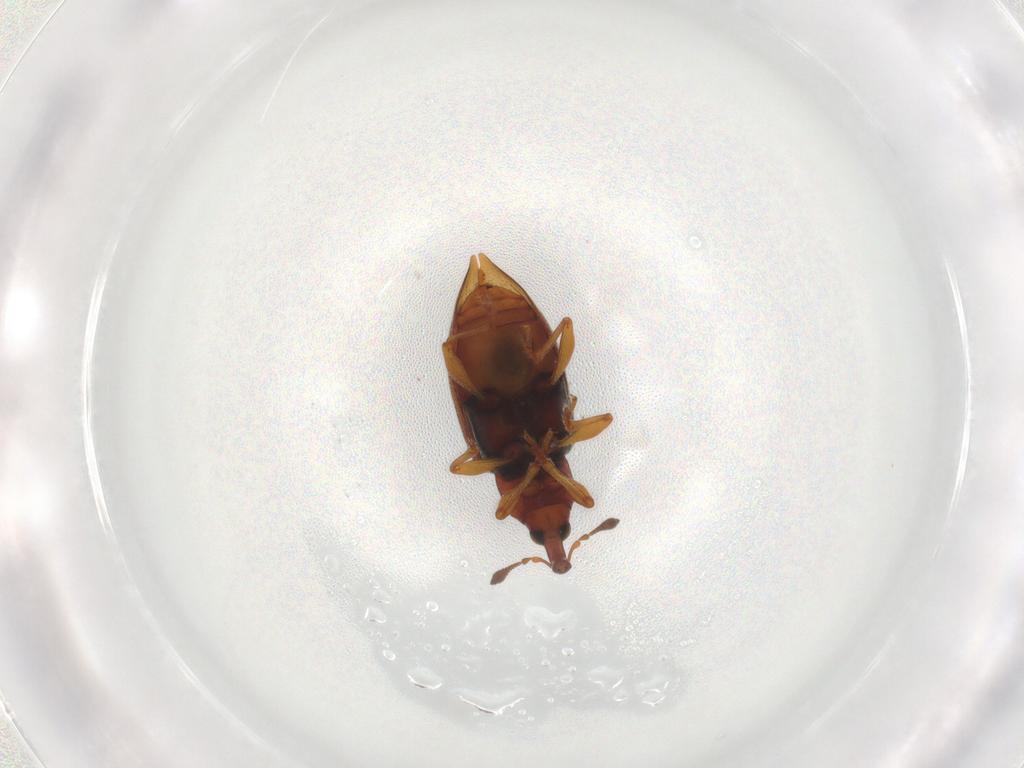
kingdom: Animalia
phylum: Arthropoda
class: Insecta
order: Coleoptera
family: Curculionidae
